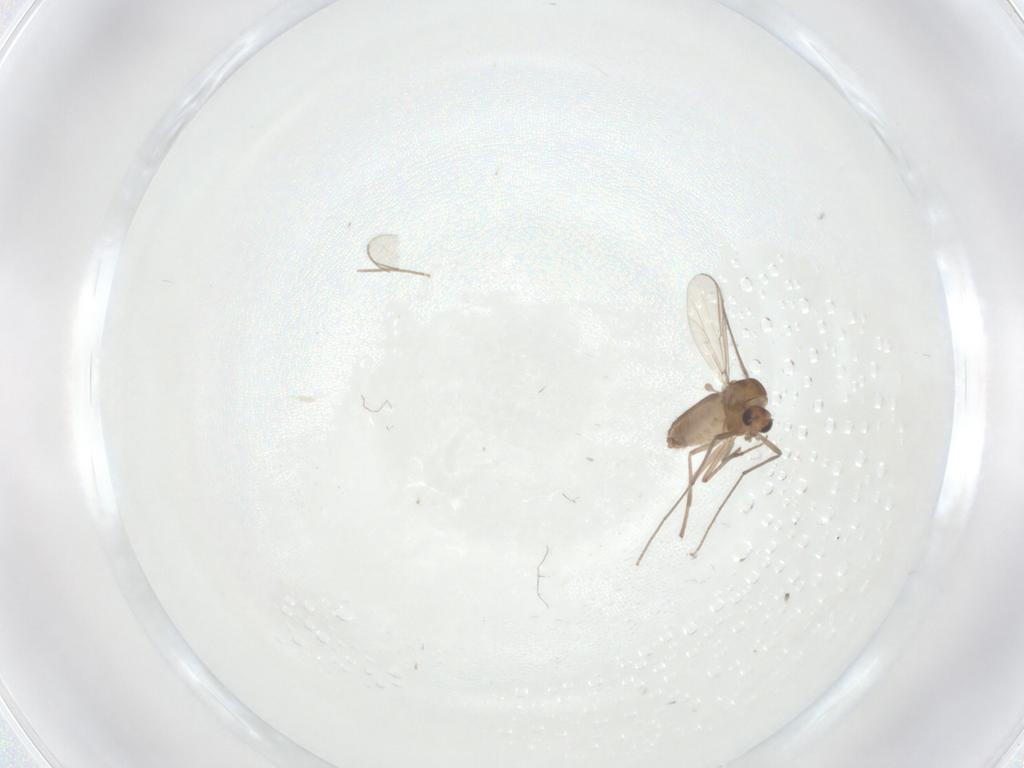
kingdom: Animalia
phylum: Arthropoda
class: Insecta
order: Diptera
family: Chironomidae
